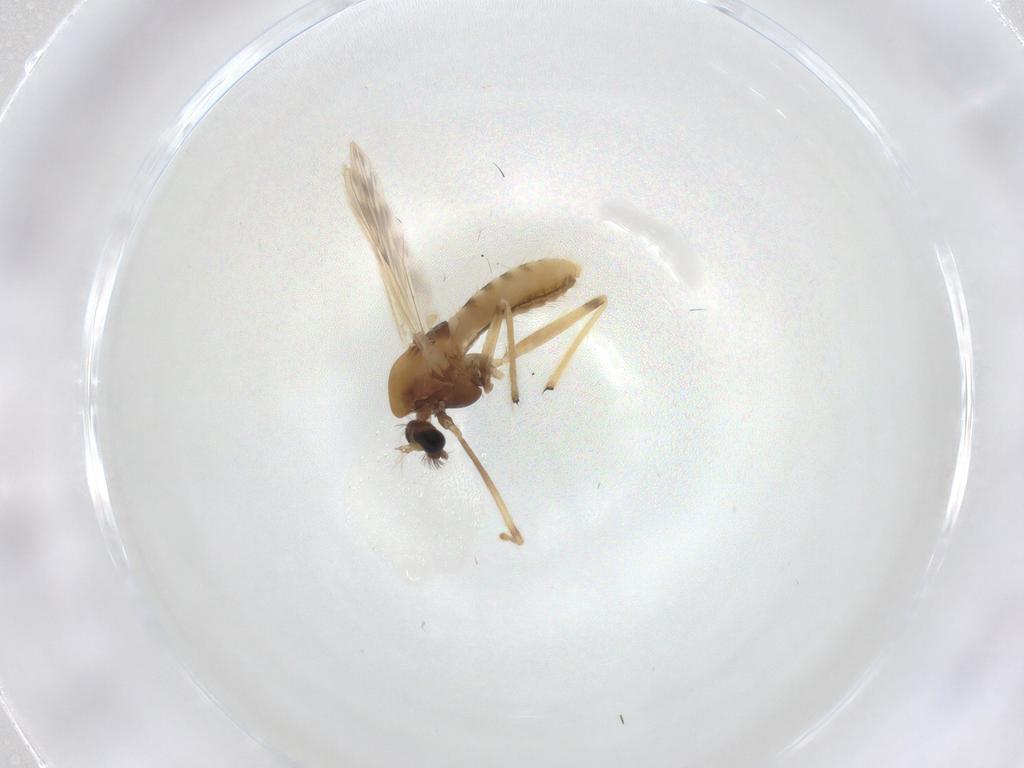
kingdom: Animalia
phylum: Arthropoda
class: Insecta
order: Diptera
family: Chironomidae
